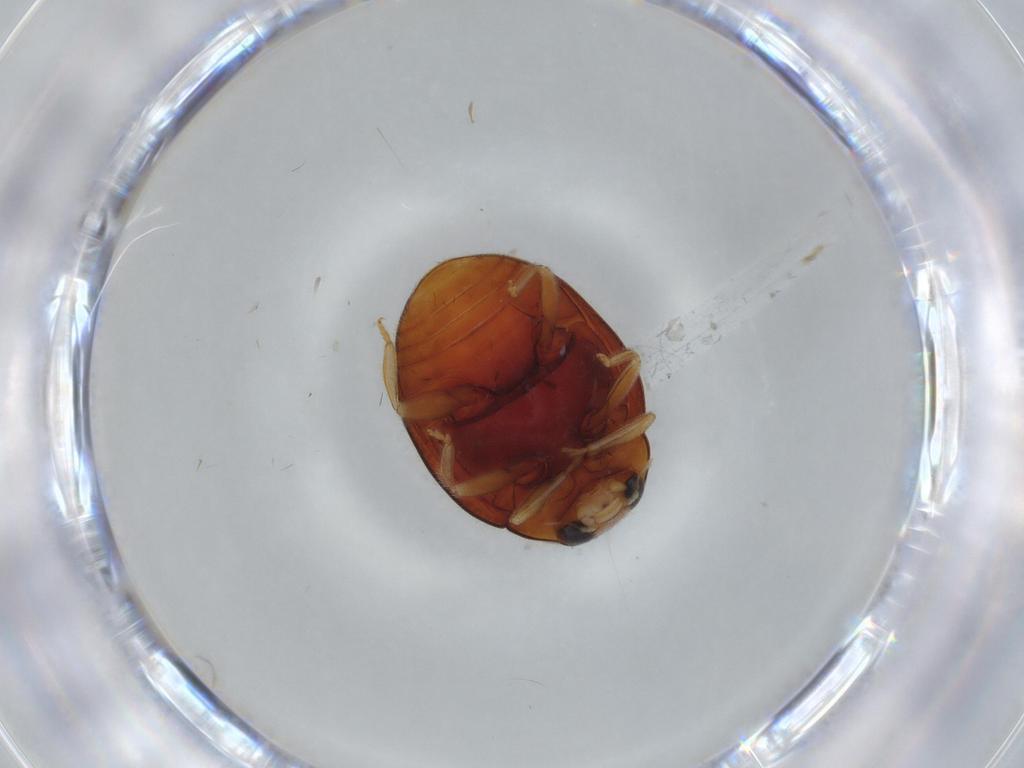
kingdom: Animalia
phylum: Arthropoda
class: Insecta
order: Coleoptera
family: Coccinellidae
